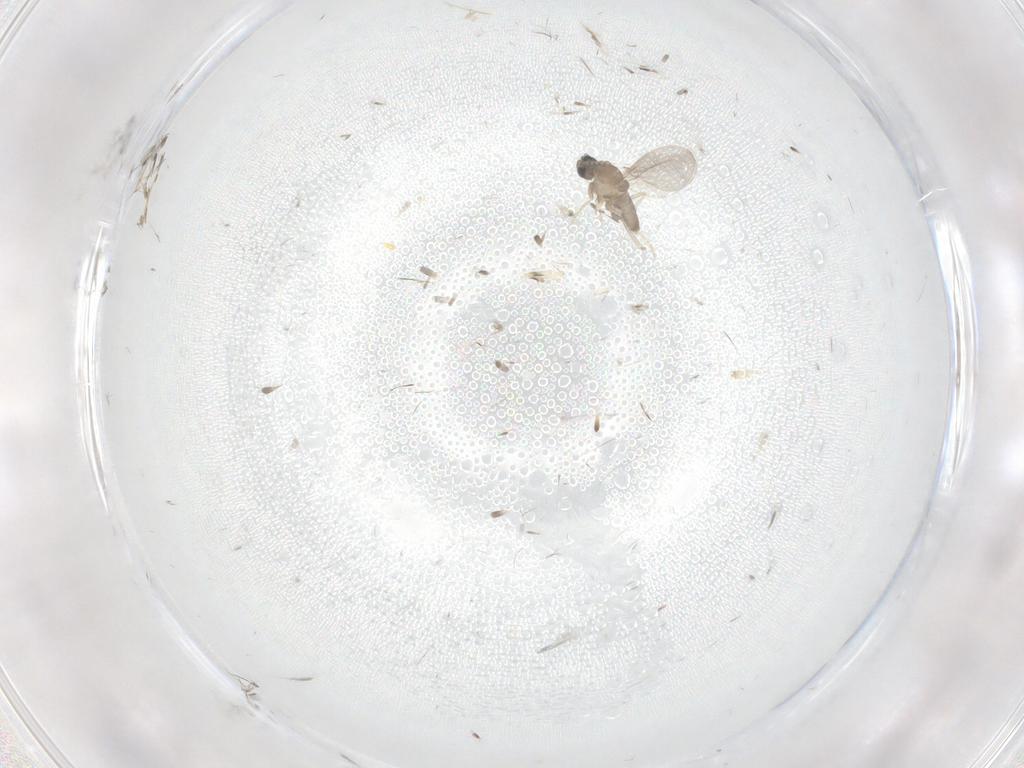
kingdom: Animalia
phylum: Arthropoda
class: Insecta
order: Diptera
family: Cecidomyiidae
